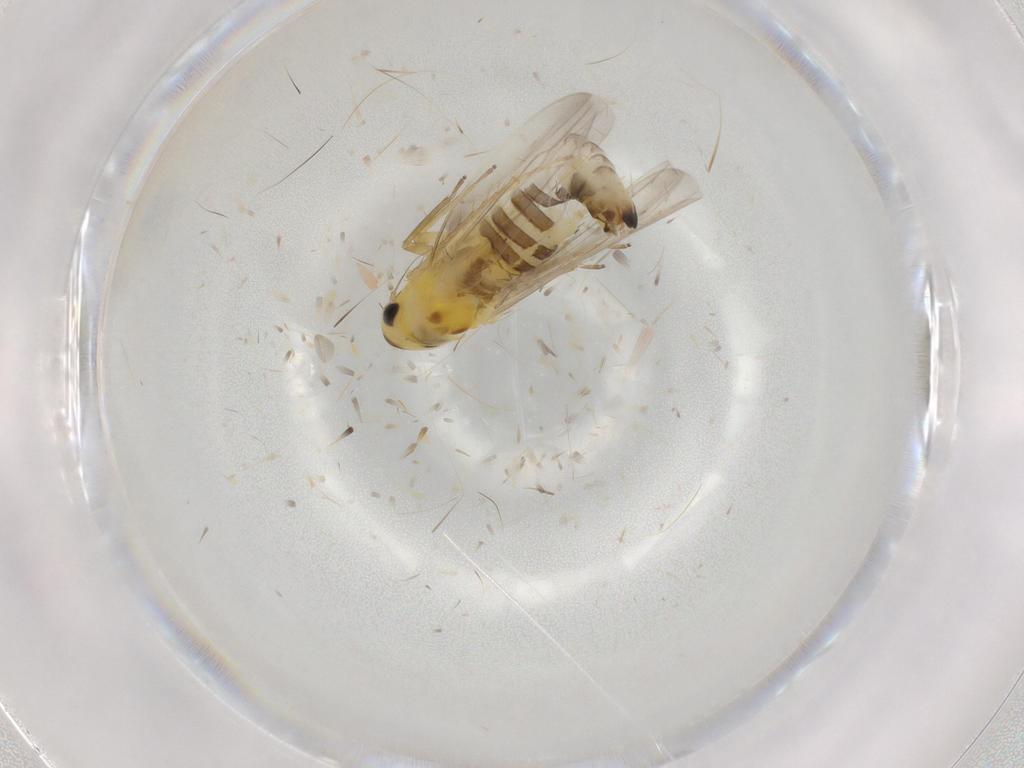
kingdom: Animalia
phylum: Arthropoda
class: Insecta
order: Hemiptera
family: Cicadellidae
